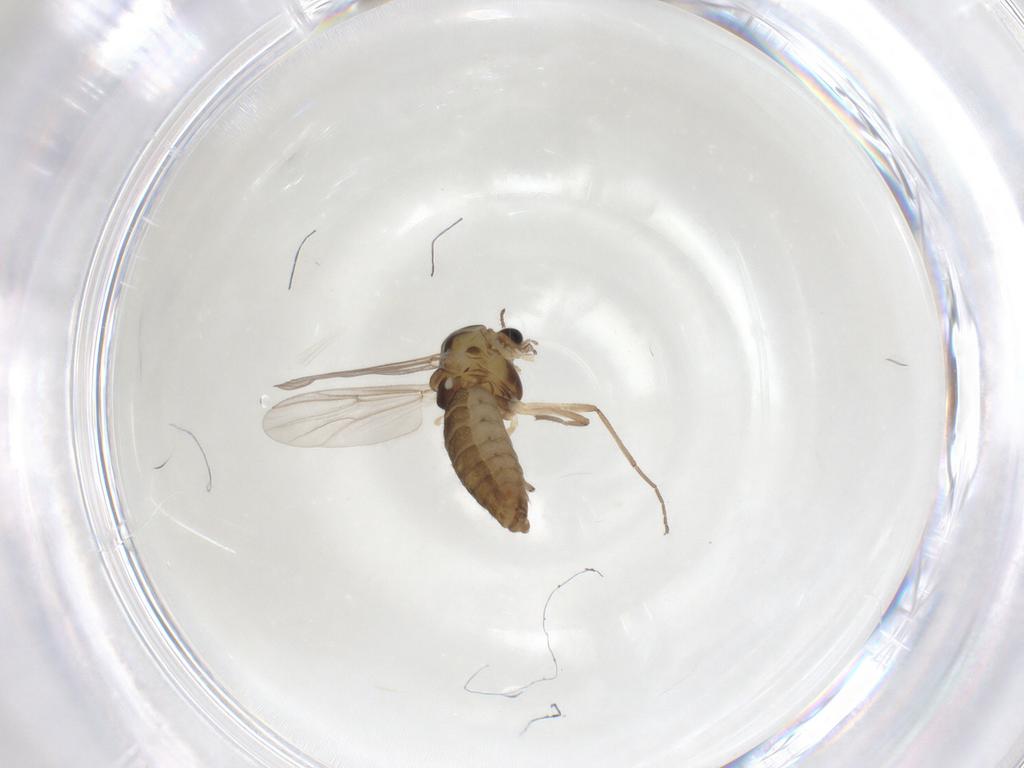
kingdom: Animalia
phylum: Arthropoda
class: Insecta
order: Diptera
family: Chironomidae
